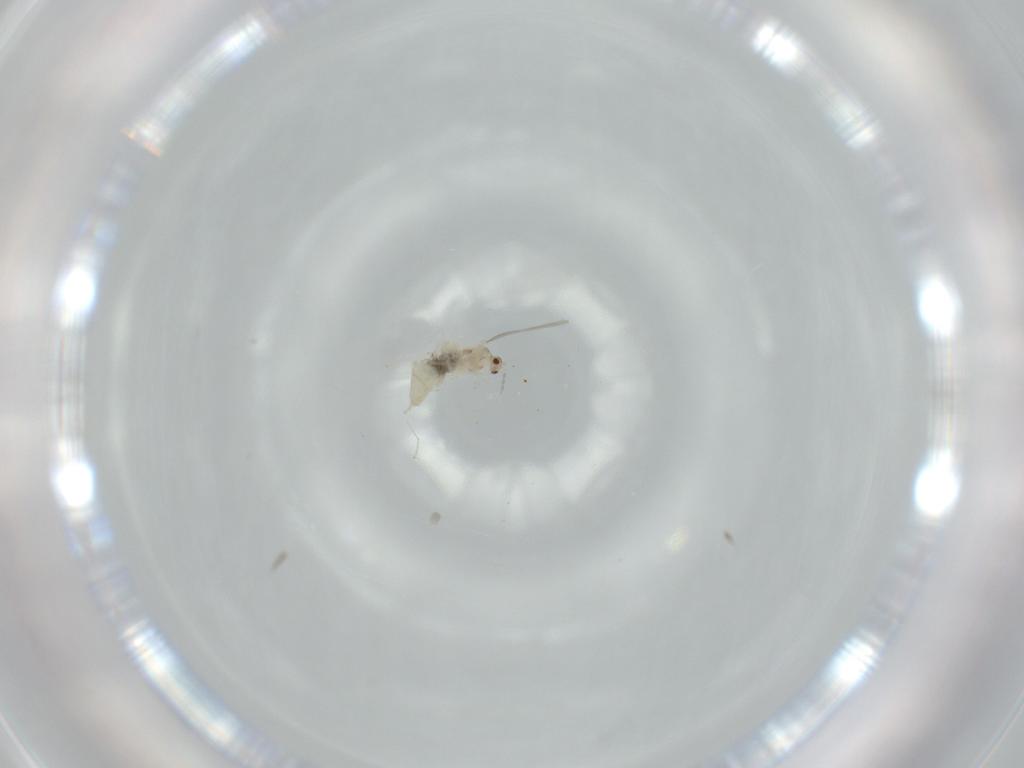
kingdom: Animalia
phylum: Arthropoda
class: Insecta
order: Diptera
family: Cecidomyiidae
